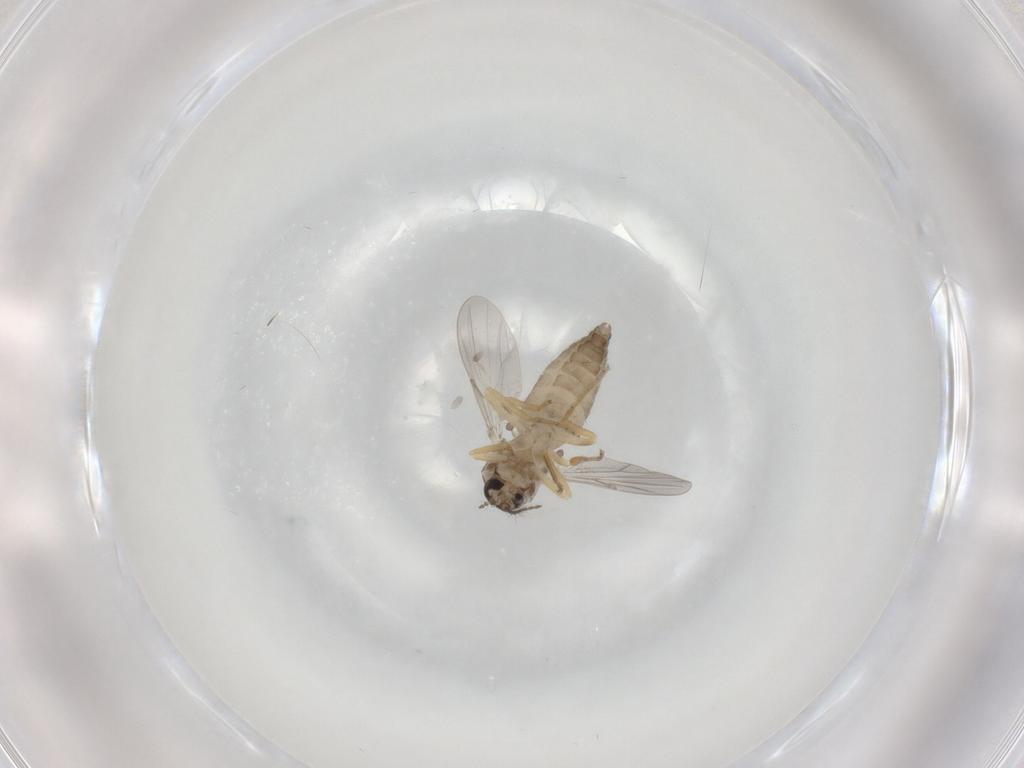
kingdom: Animalia
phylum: Arthropoda
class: Insecta
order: Diptera
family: Ceratopogonidae
